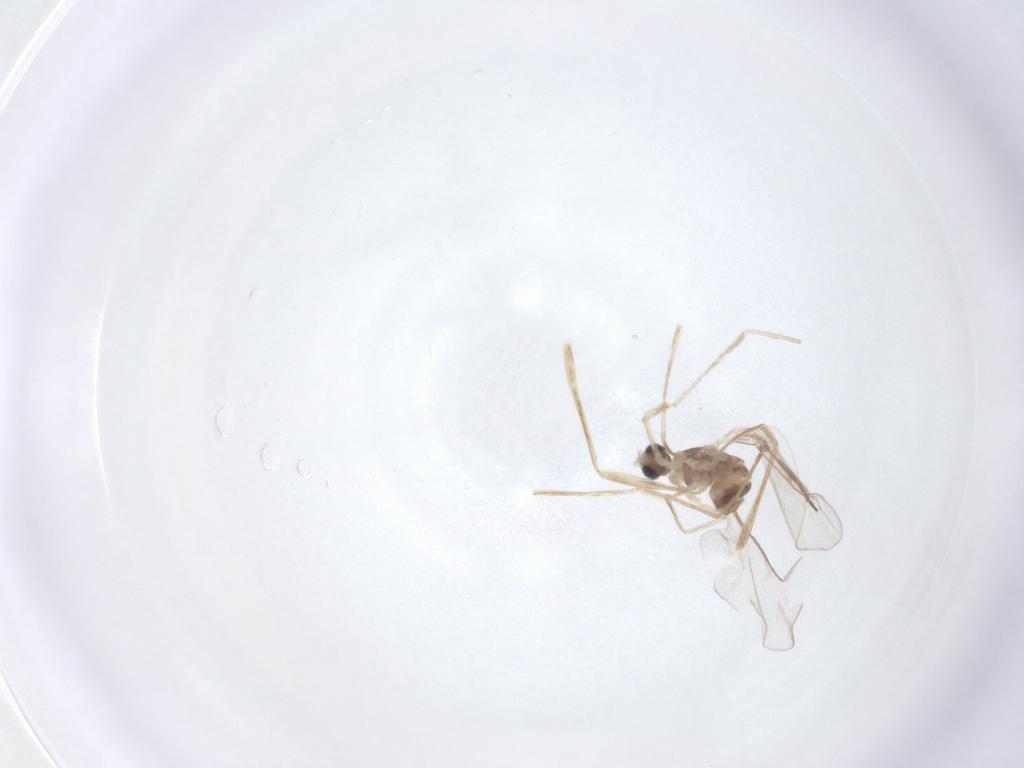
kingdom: Animalia
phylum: Arthropoda
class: Insecta
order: Diptera
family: Cecidomyiidae
